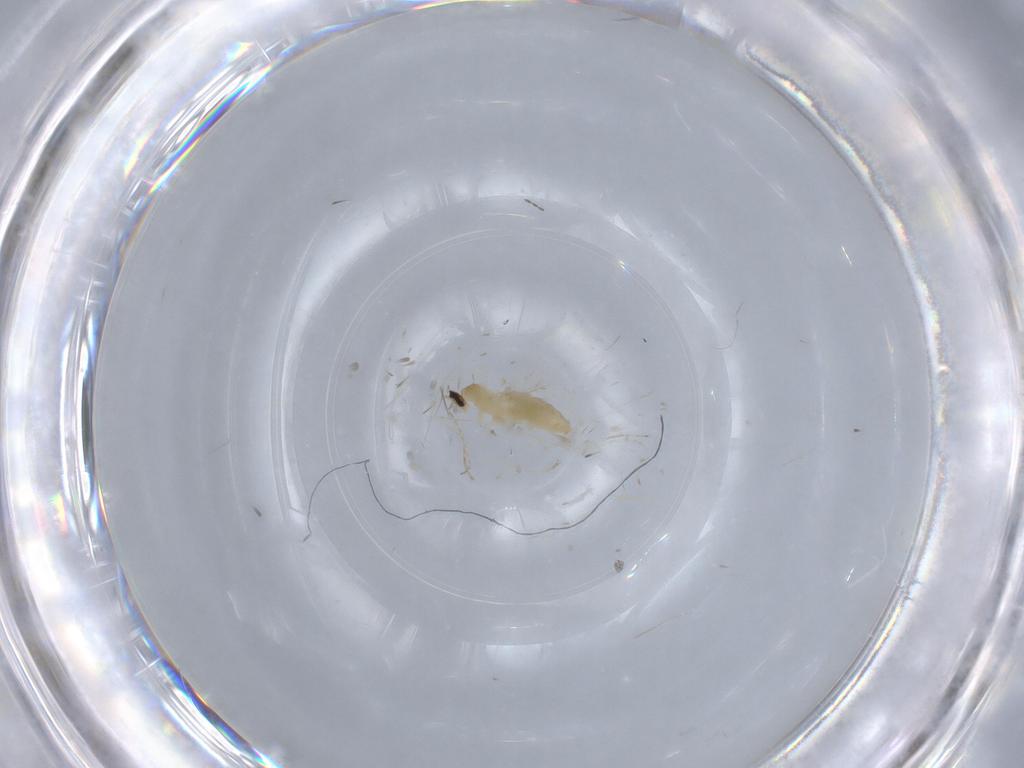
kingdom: Animalia
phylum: Arthropoda
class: Insecta
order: Diptera
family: Cecidomyiidae
